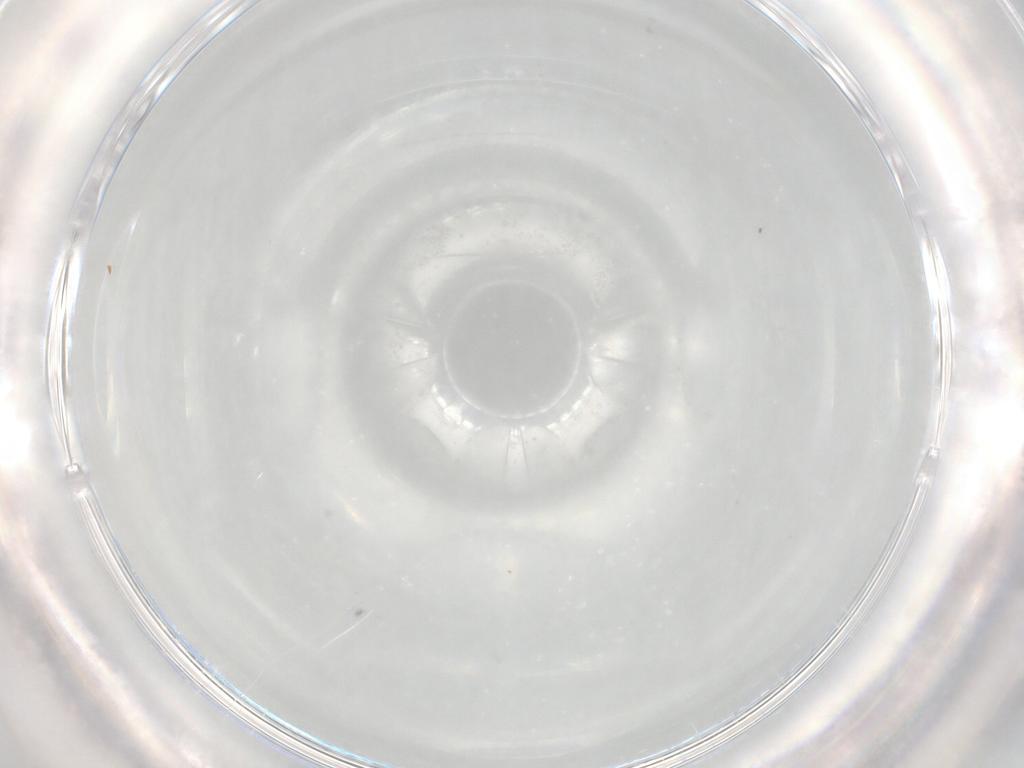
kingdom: Animalia
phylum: Arthropoda
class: Arachnida
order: Trombidiformes
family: Rhagidiidae
